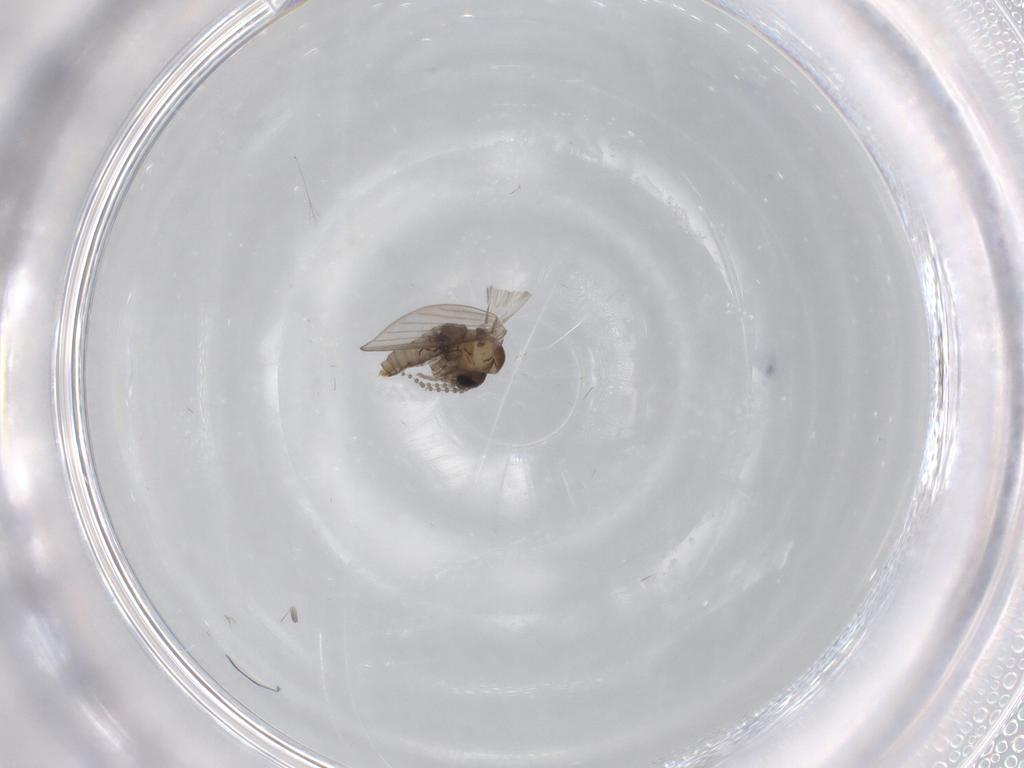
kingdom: Animalia
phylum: Arthropoda
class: Insecta
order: Diptera
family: Psychodidae
